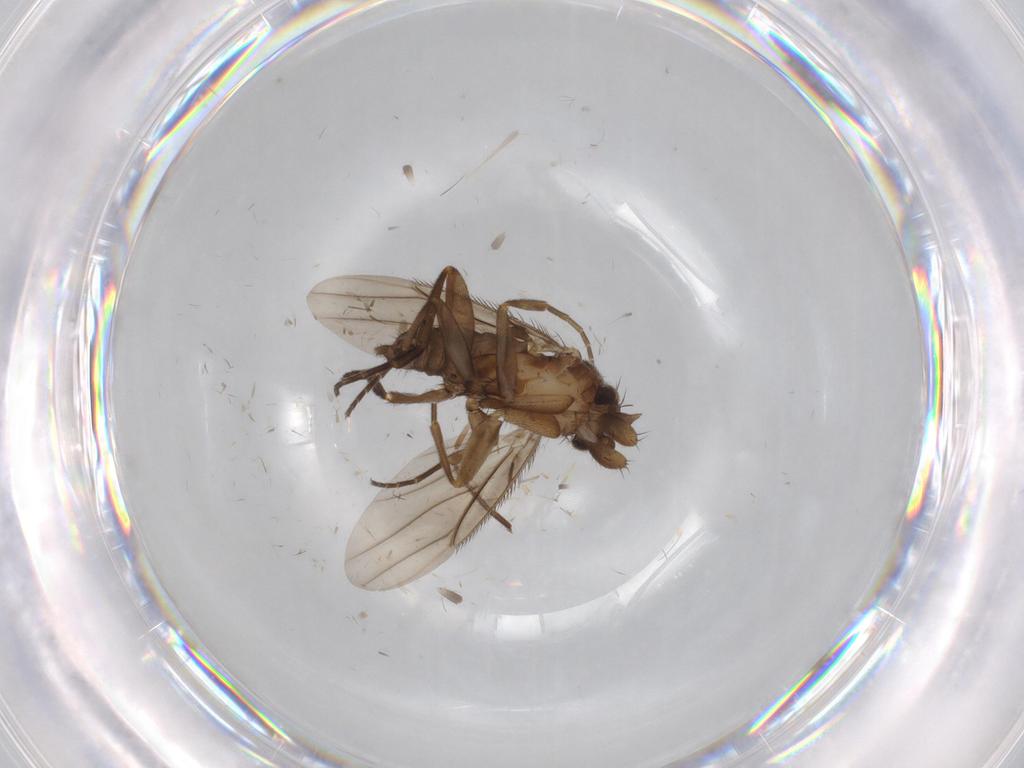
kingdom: Animalia
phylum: Arthropoda
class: Insecta
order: Diptera
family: Phoridae
